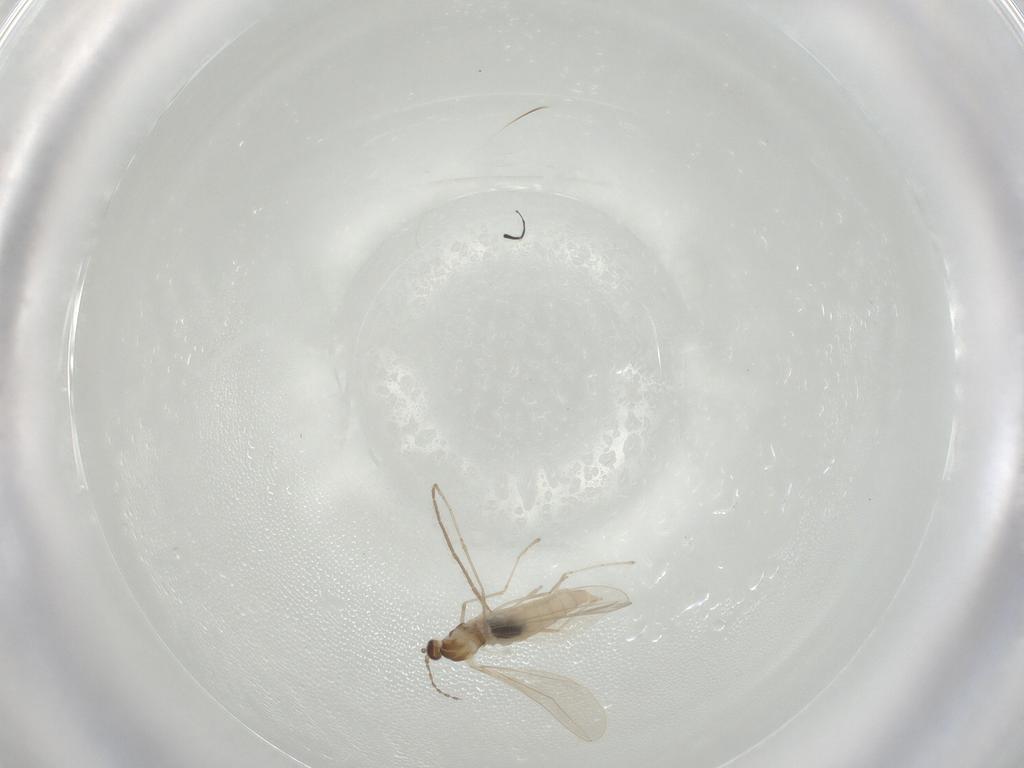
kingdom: Animalia
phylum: Arthropoda
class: Insecta
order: Diptera
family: Cecidomyiidae
